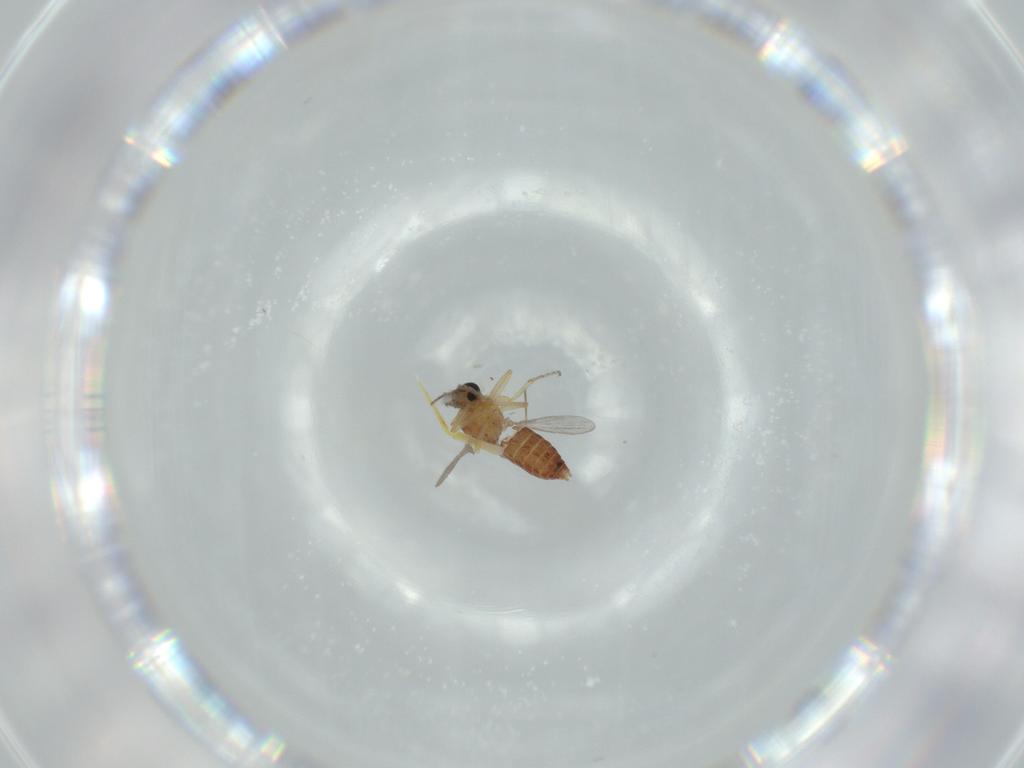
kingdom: Animalia
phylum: Arthropoda
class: Insecta
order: Diptera
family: Ceratopogonidae
